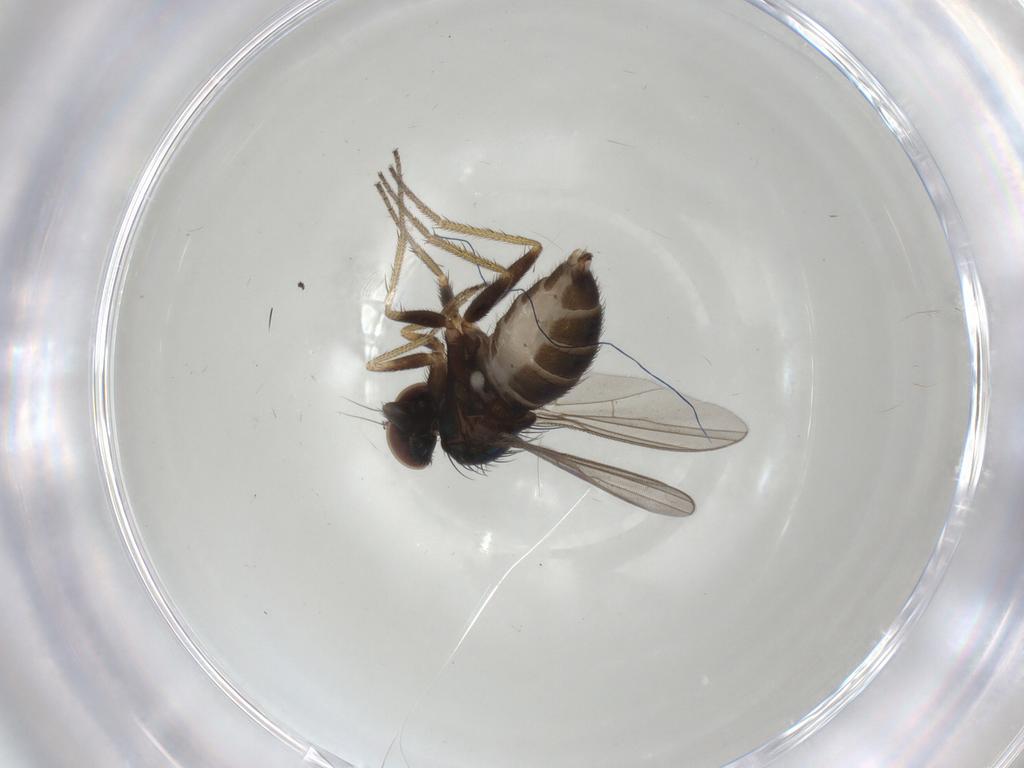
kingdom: Animalia
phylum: Arthropoda
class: Insecta
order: Diptera
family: Dolichopodidae
